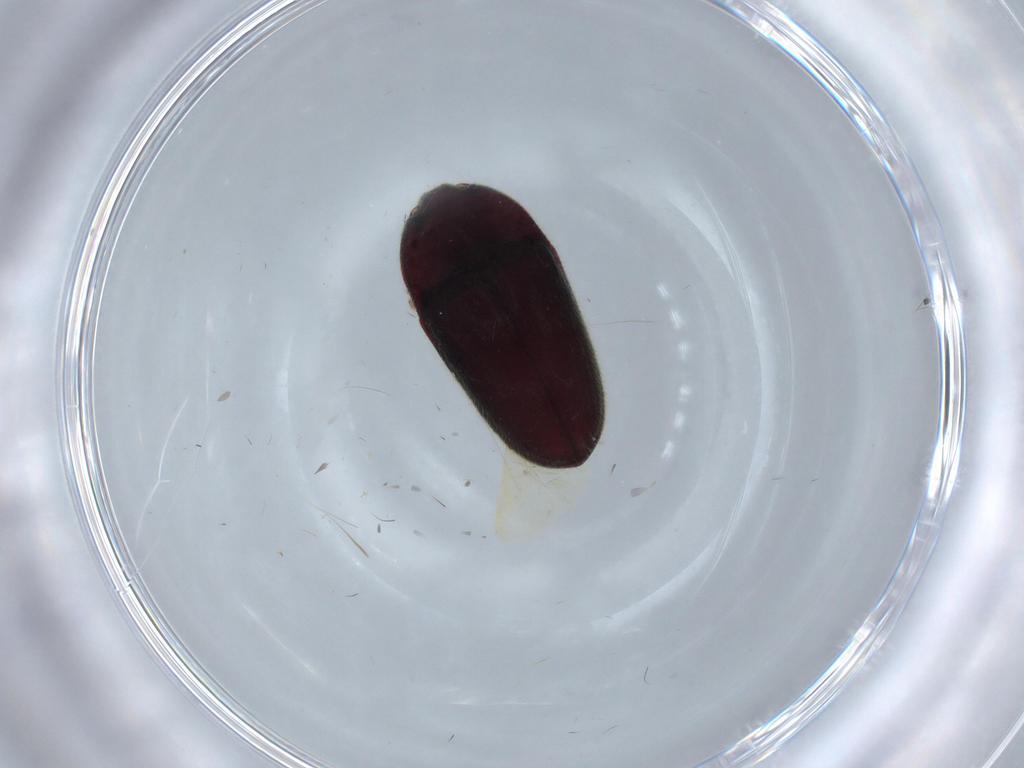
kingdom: Animalia
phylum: Arthropoda
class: Insecta
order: Coleoptera
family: Throscidae
